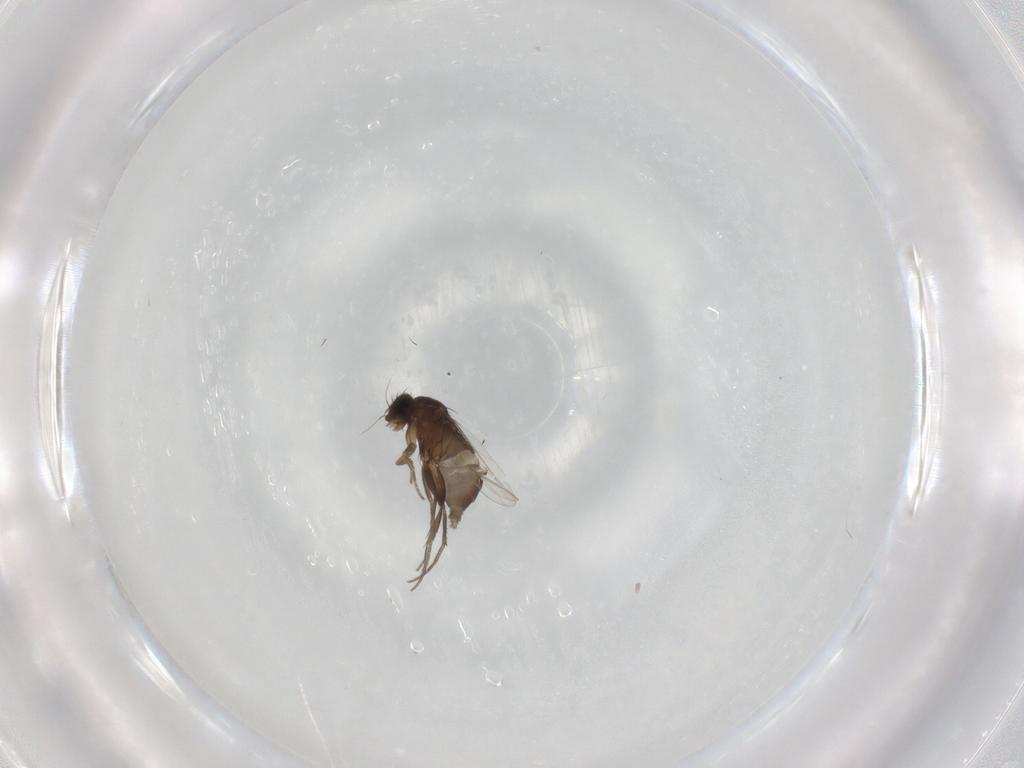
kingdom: Animalia
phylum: Arthropoda
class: Insecta
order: Diptera
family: Phoridae
